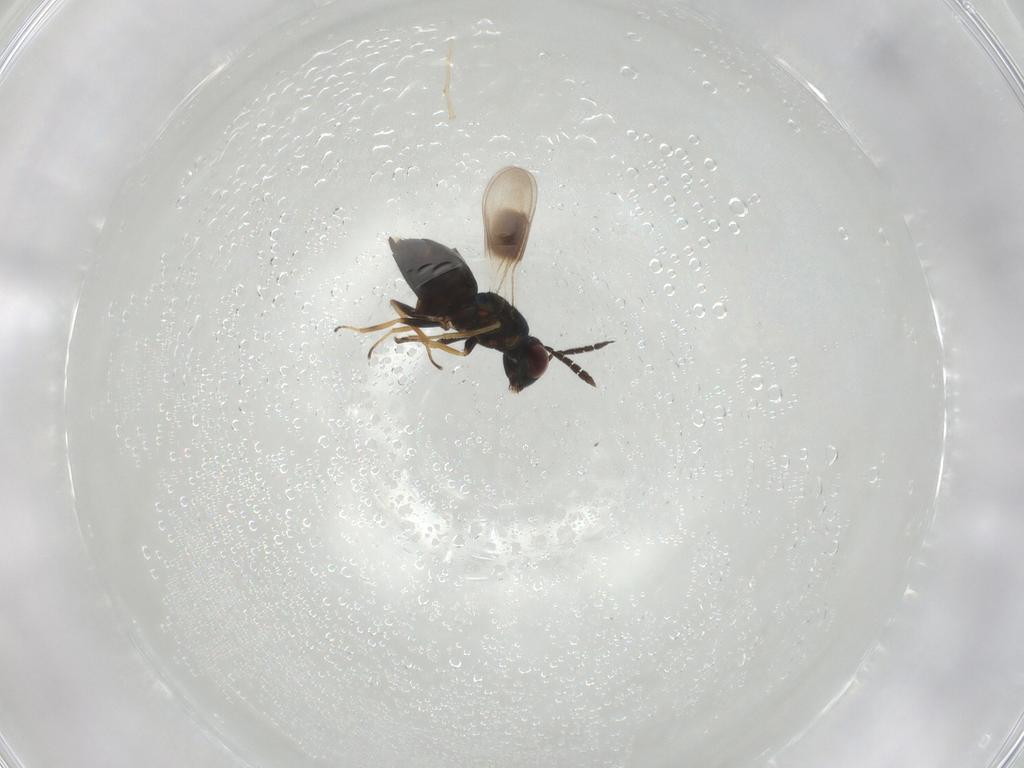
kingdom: Animalia
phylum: Arthropoda
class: Insecta
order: Hymenoptera
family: Eulophidae
